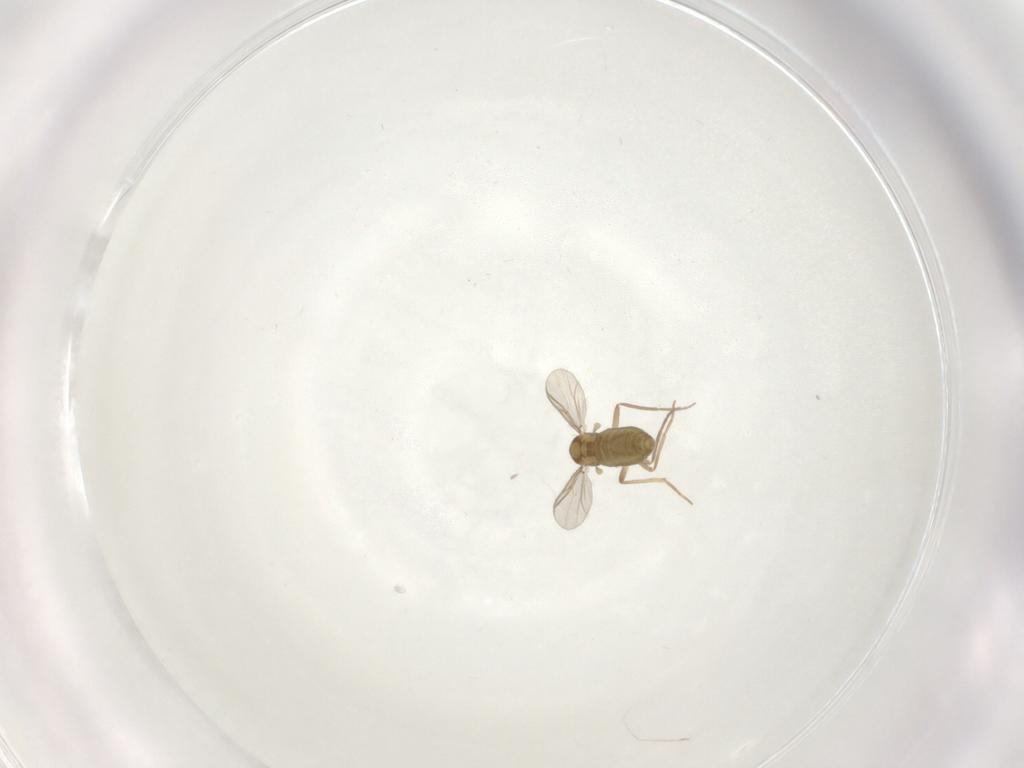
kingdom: Animalia
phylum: Arthropoda
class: Insecta
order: Diptera
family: Chironomidae
